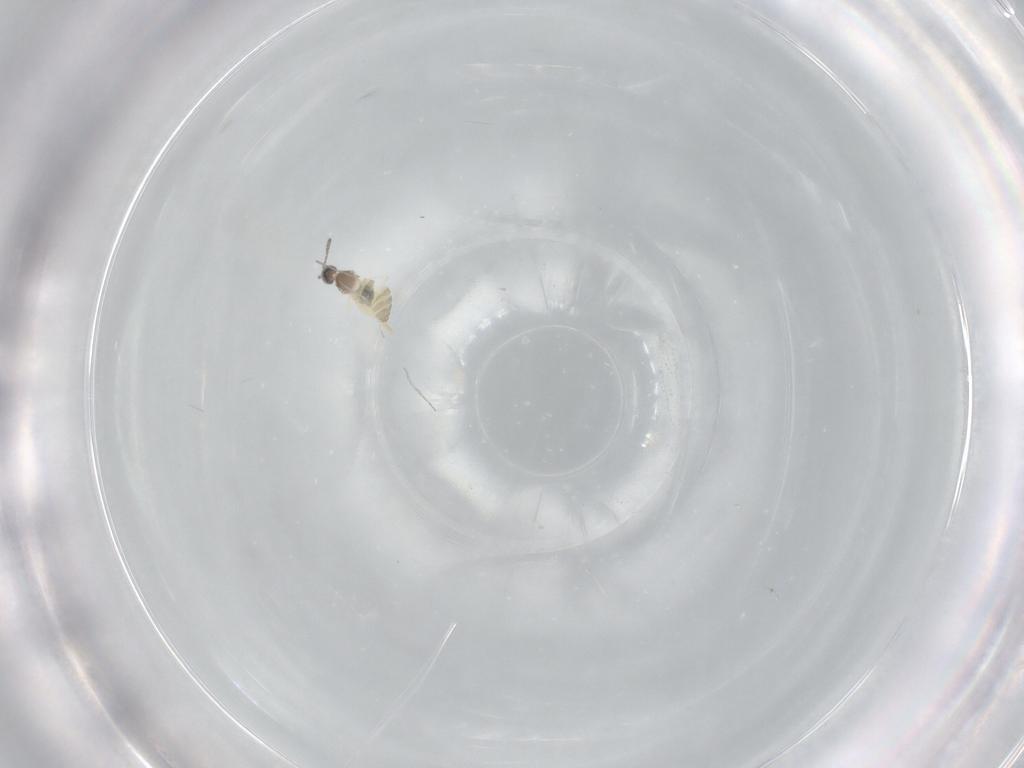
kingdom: Animalia
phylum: Arthropoda
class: Insecta
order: Diptera
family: Cecidomyiidae
